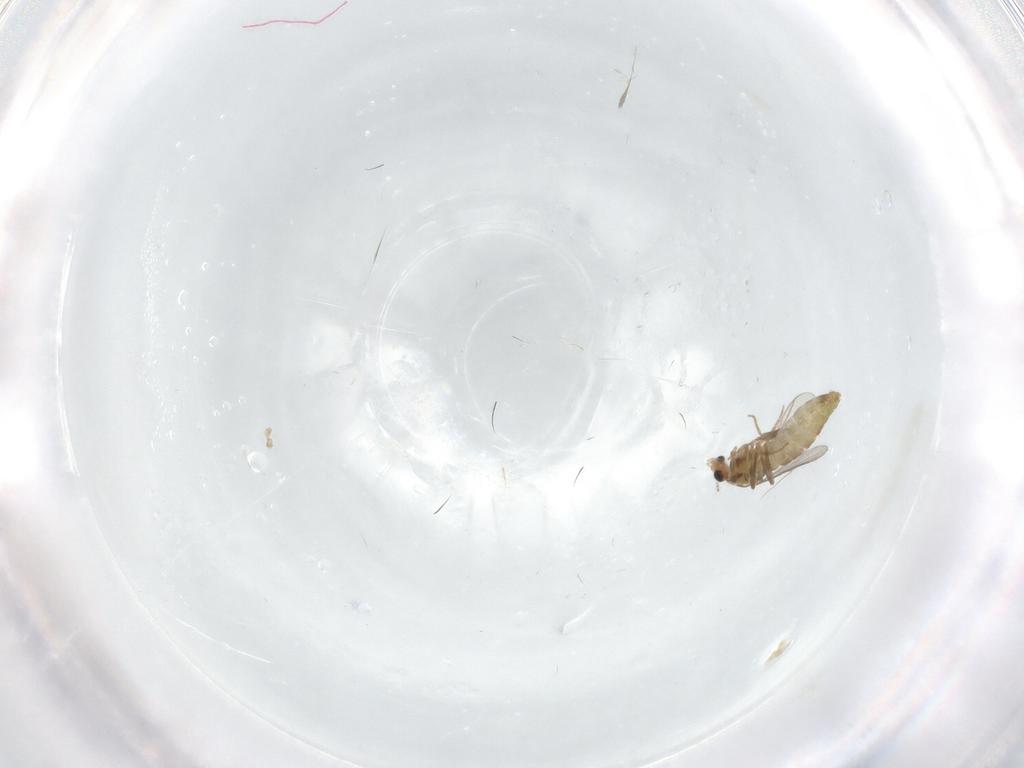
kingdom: Animalia
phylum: Arthropoda
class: Insecta
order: Diptera
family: Chironomidae
